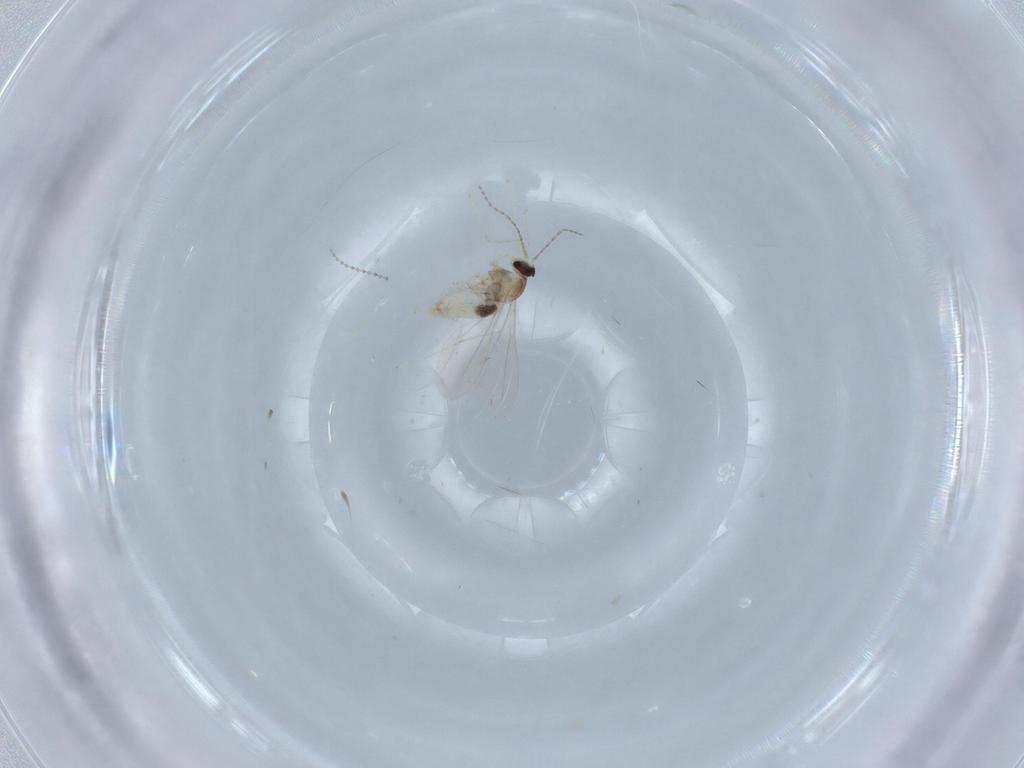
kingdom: Animalia
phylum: Arthropoda
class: Insecta
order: Diptera
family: Cecidomyiidae
